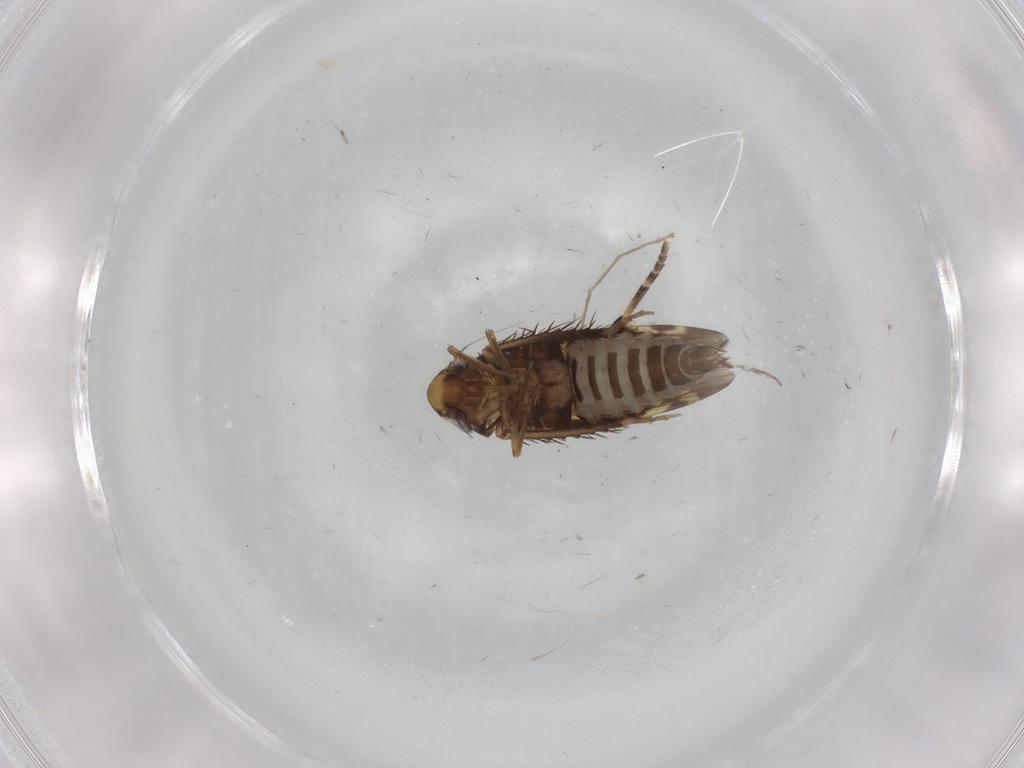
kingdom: Animalia
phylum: Arthropoda
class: Insecta
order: Hemiptera
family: Cicadellidae
